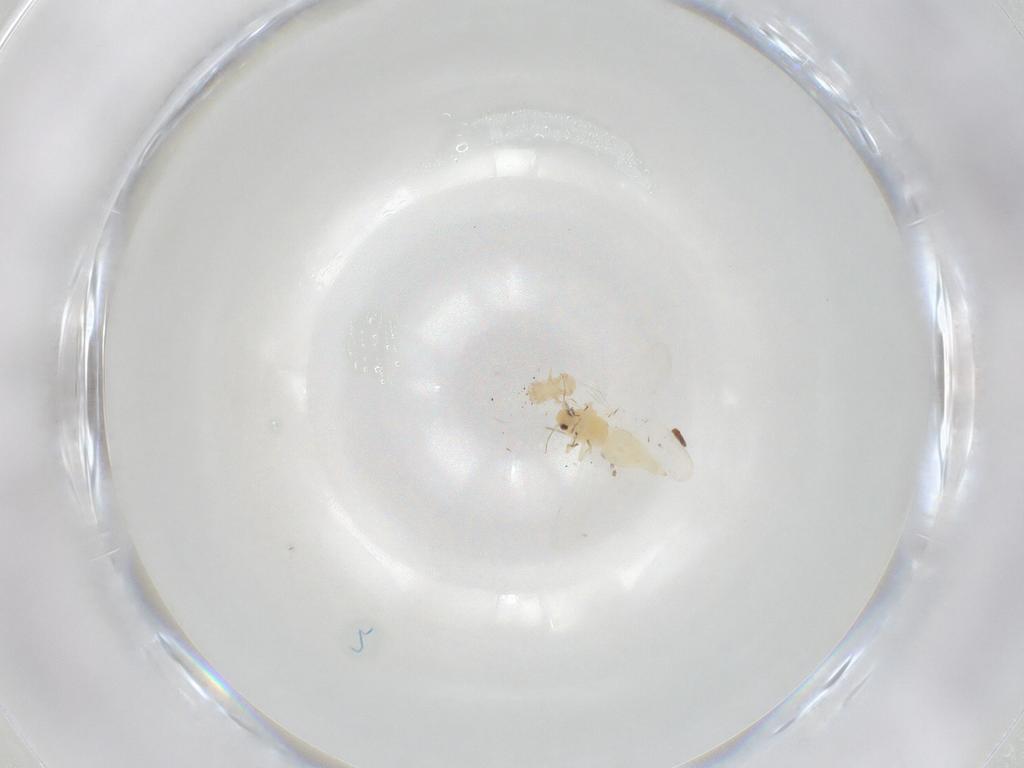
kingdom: Animalia
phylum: Arthropoda
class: Insecta
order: Hemiptera
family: Aleyrodidae
